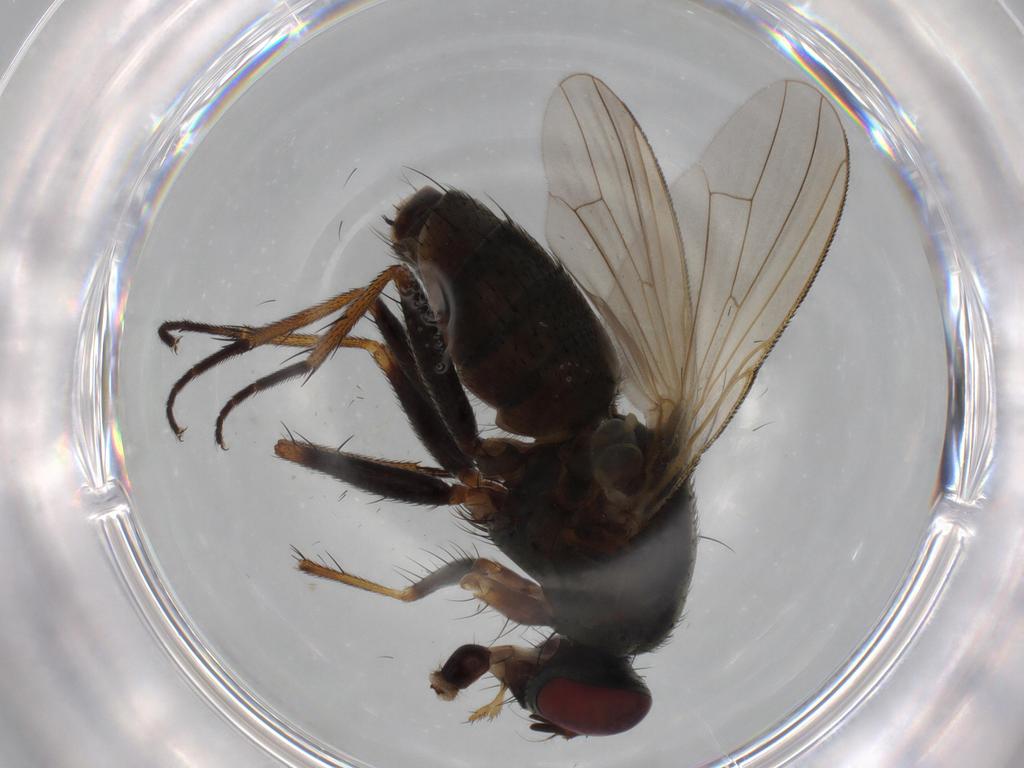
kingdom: Animalia
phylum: Arthropoda
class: Insecta
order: Diptera
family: Muscidae
